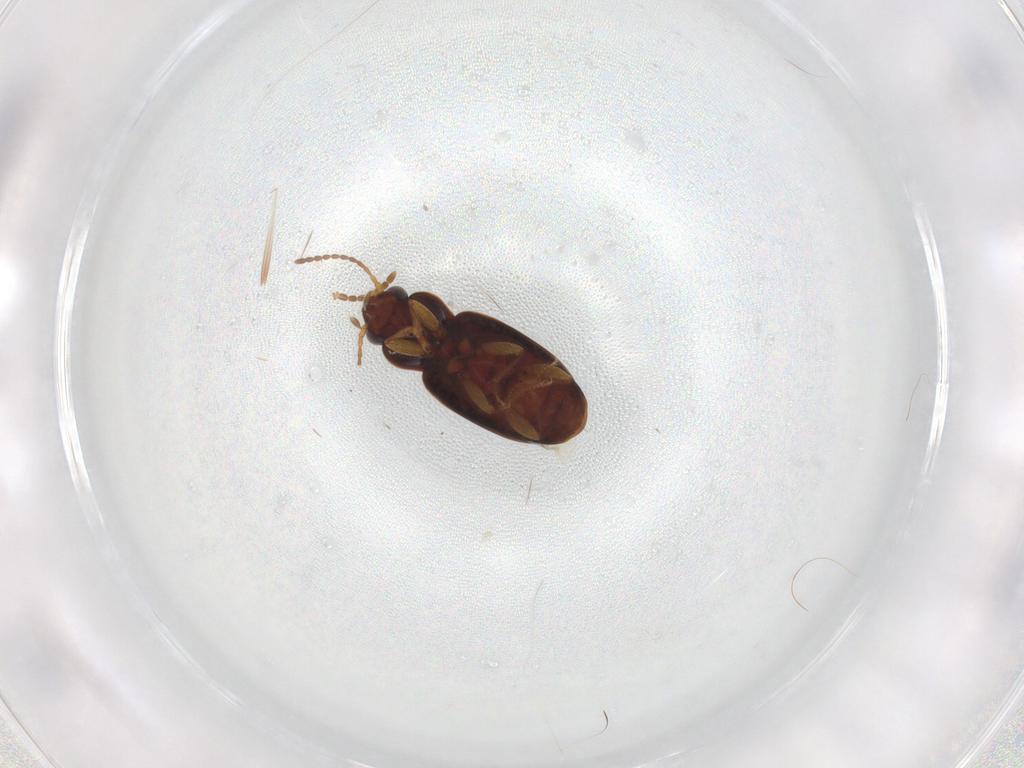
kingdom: Animalia
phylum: Arthropoda
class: Insecta
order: Coleoptera
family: Carabidae
